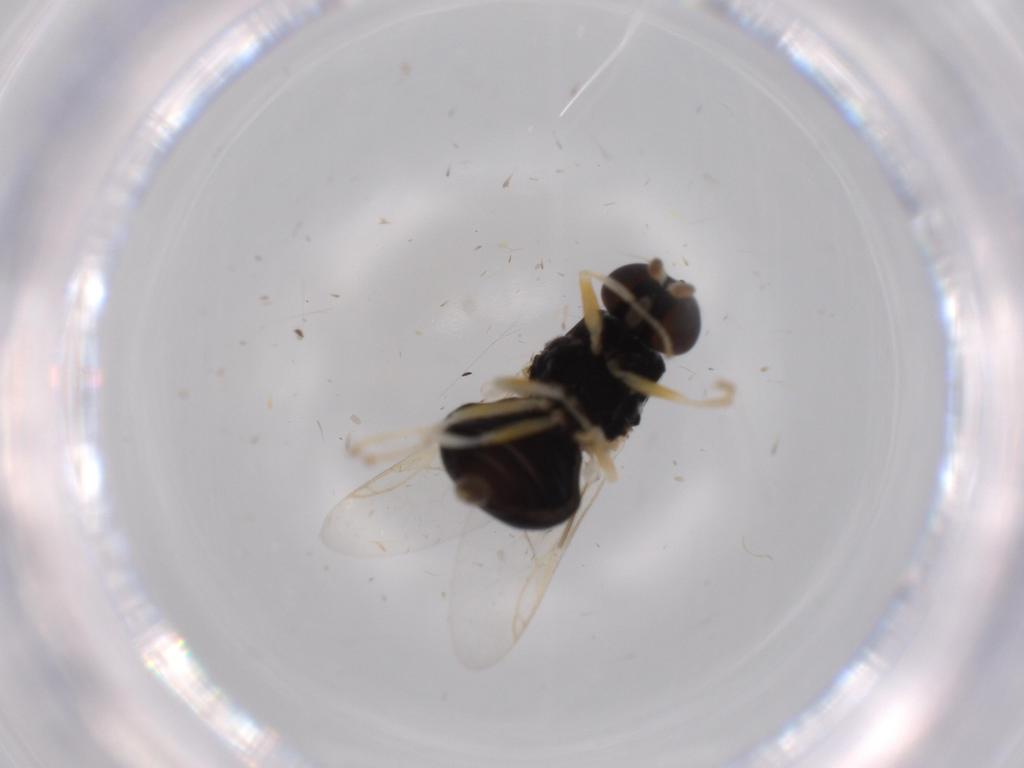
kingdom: Animalia
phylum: Arthropoda
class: Insecta
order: Diptera
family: Stratiomyidae
